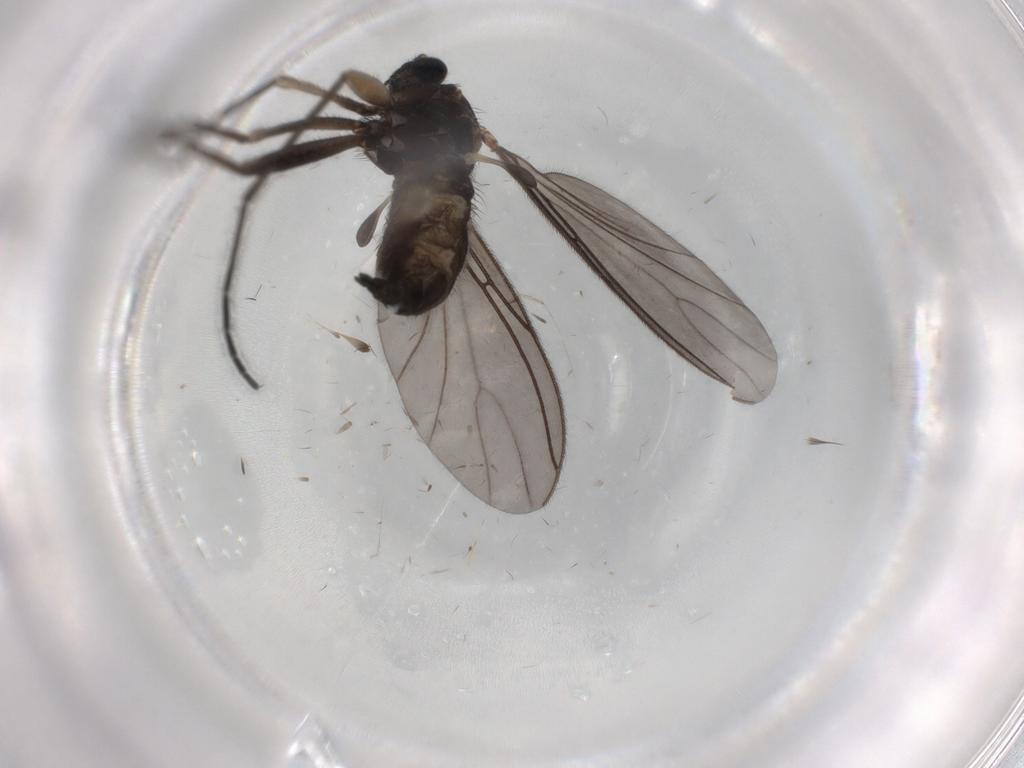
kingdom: Animalia
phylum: Arthropoda
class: Insecta
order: Diptera
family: Sciaridae
